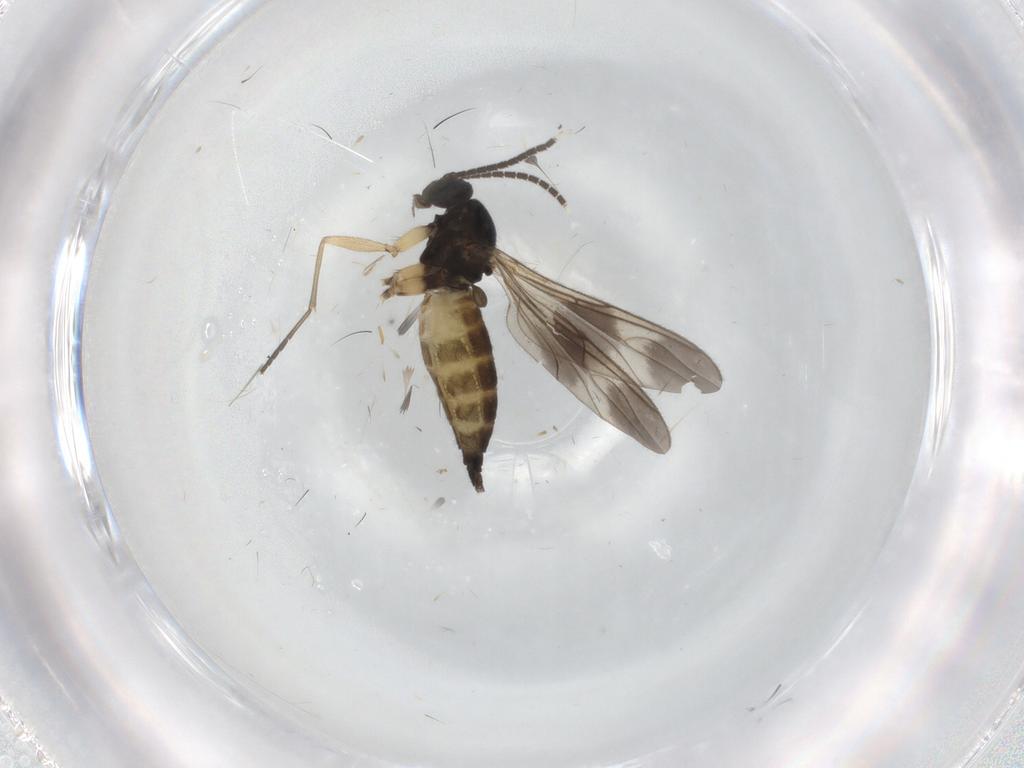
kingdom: Animalia
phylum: Arthropoda
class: Insecta
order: Diptera
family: Sciaridae
